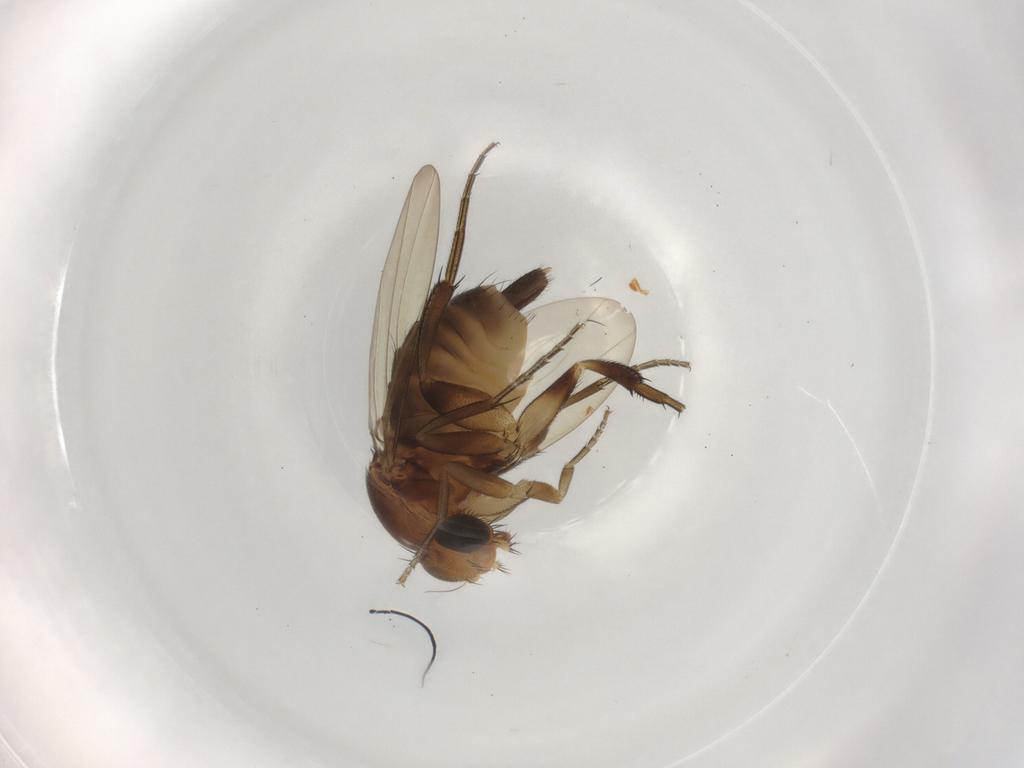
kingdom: Animalia
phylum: Arthropoda
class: Insecta
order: Diptera
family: Phoridae
